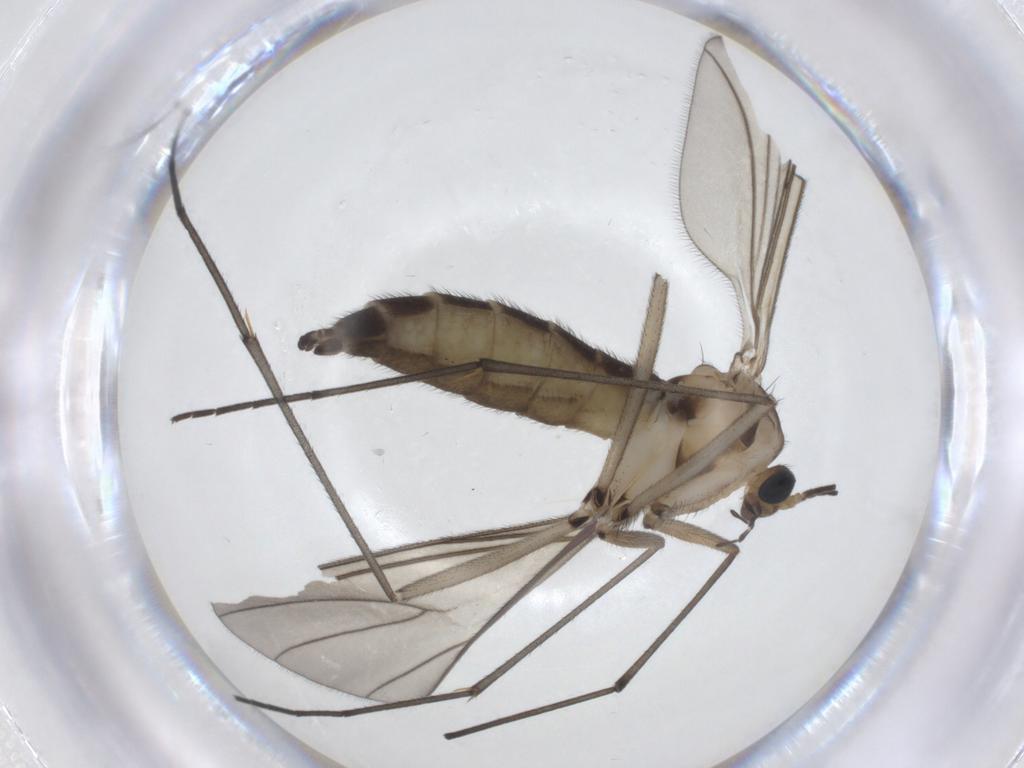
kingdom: Animalia
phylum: Arthropoda
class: Insecta
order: Diptera
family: Sciaridae
